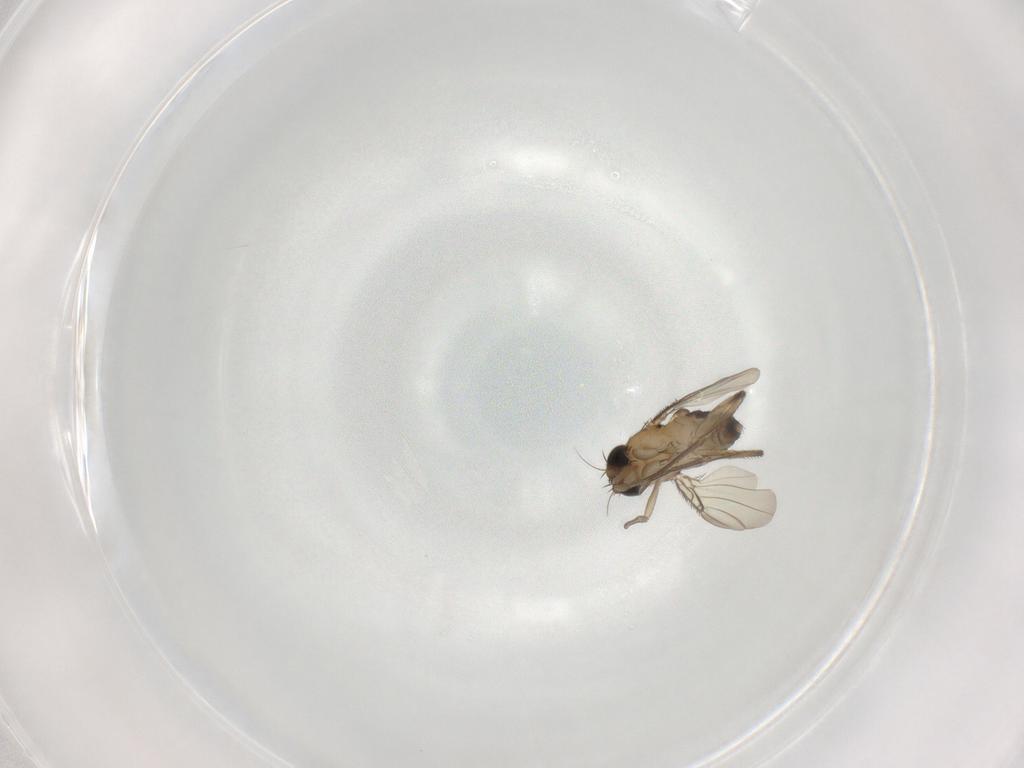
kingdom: Animalia
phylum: Arthropoda
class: Insecta
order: Diptera
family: Phoridae
